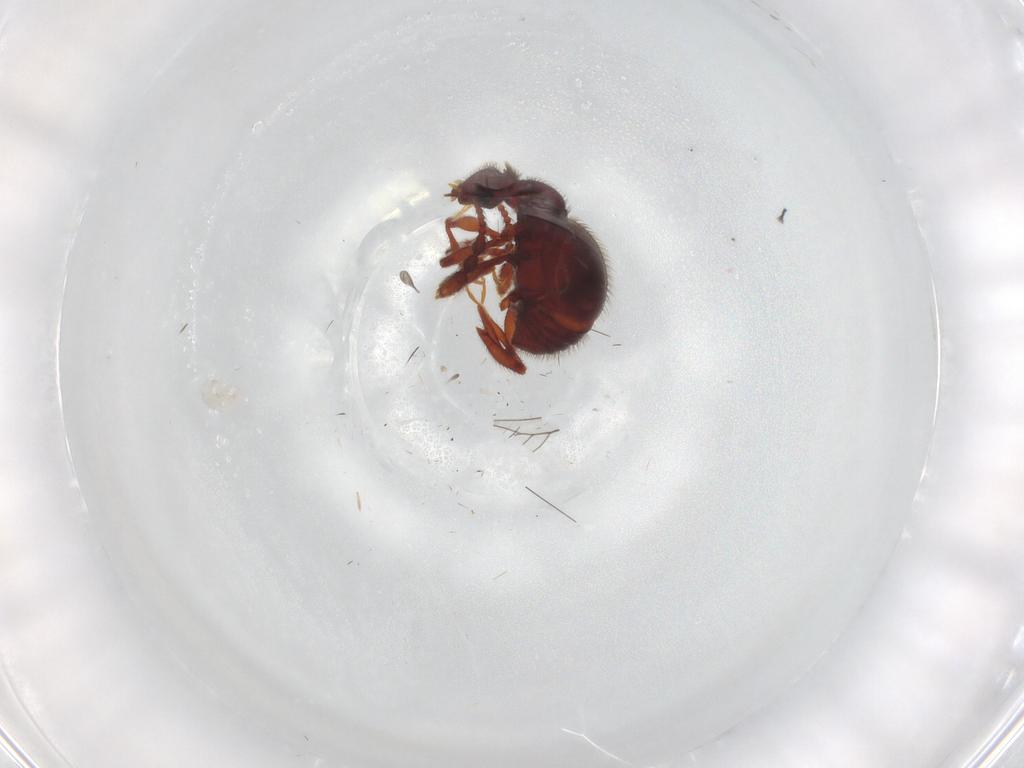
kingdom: Animalia
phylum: Arthropoda
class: Insecta
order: Coleoptera
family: Staphylinidae
